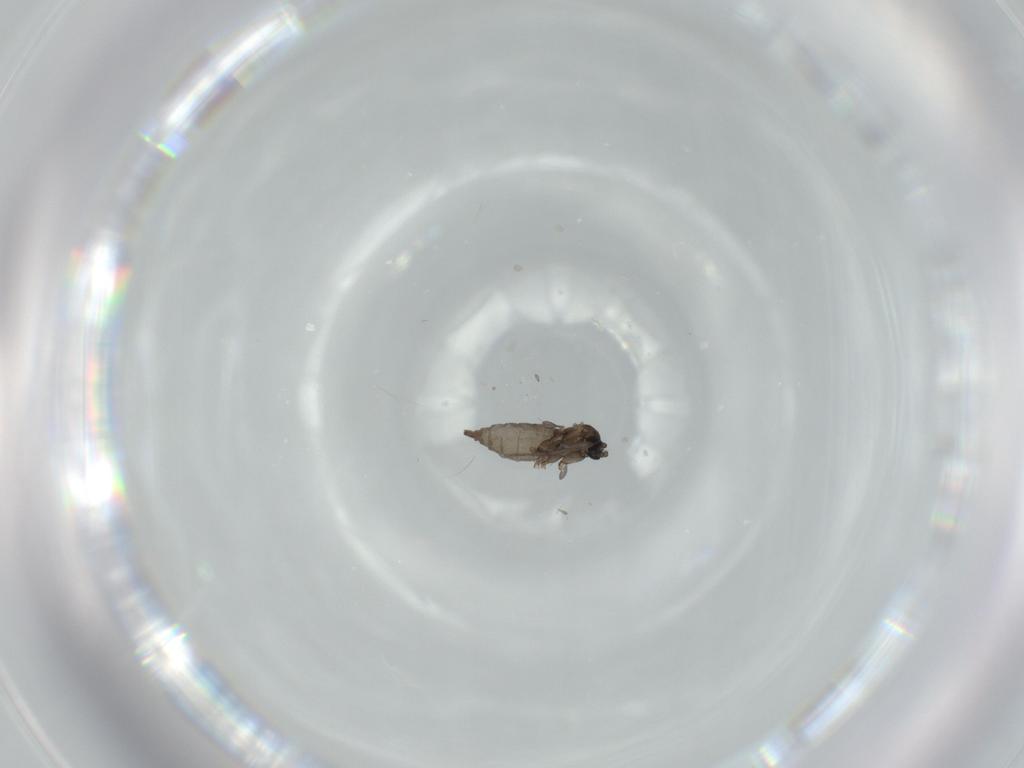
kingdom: Animalia
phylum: Arthropoda
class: Insecta
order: Diptera
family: Sciaridae
